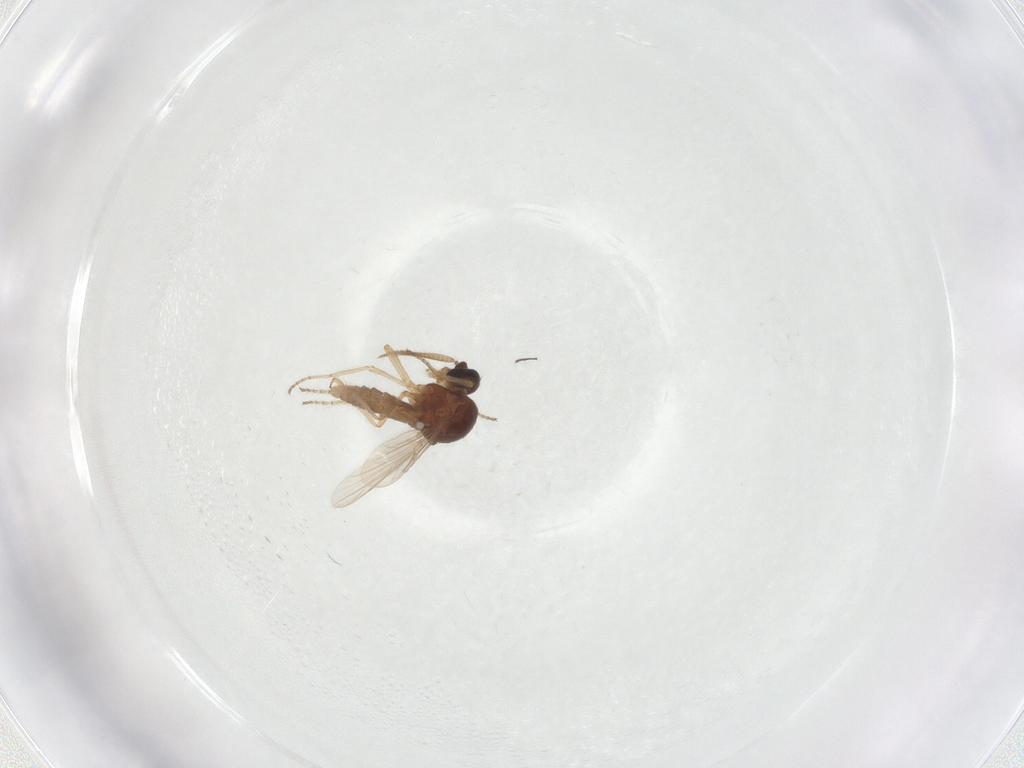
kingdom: Animalia
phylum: Arthropoda
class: Insecta
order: Diptera
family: Ceratopogonidae
